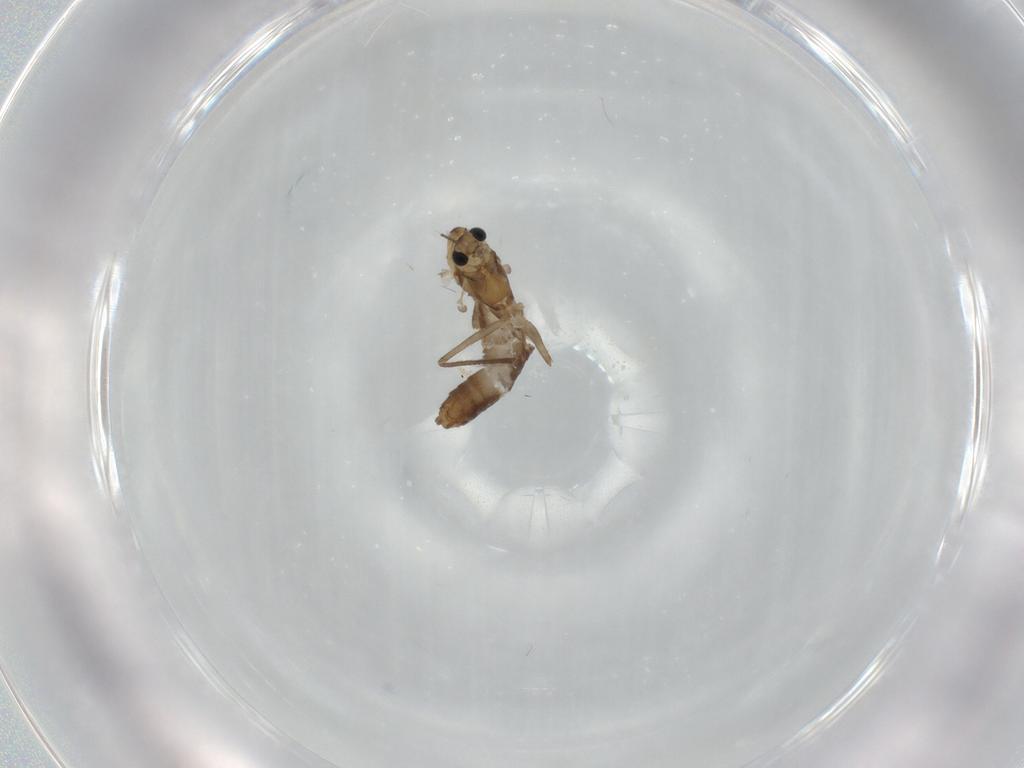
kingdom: Animalia
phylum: Arthropoda
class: Insecta
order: Diptera
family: Chironomidae
